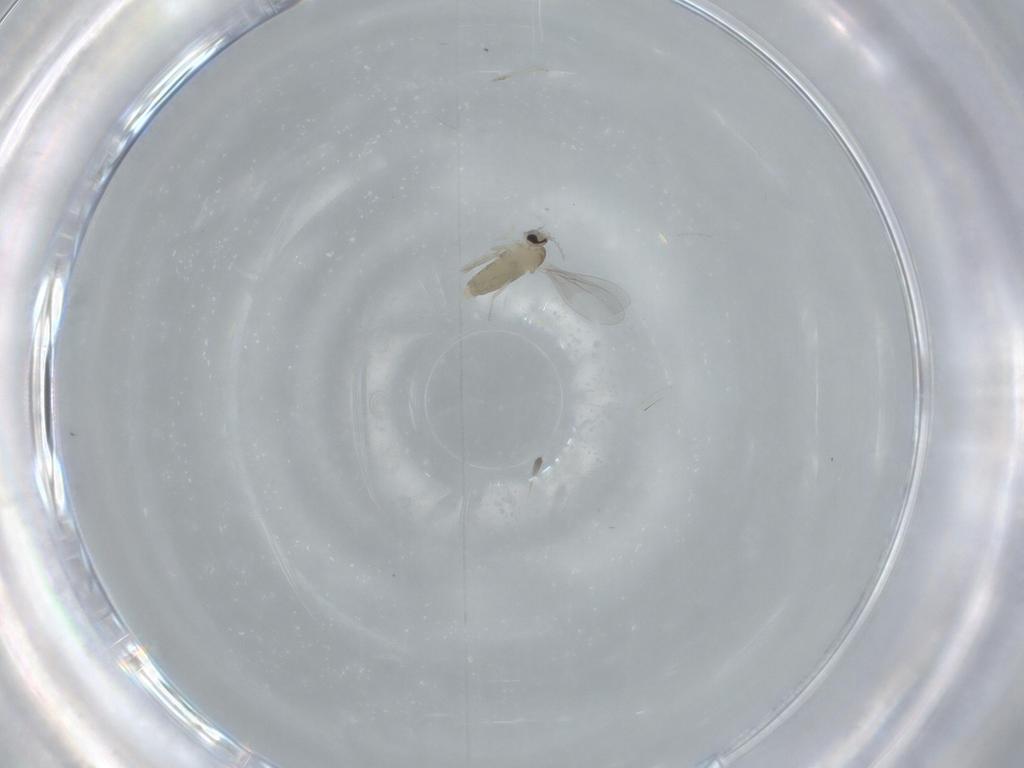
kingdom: Animalia
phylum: Arthropoda
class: Insecta
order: Diptera
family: Cecidomyiidae
